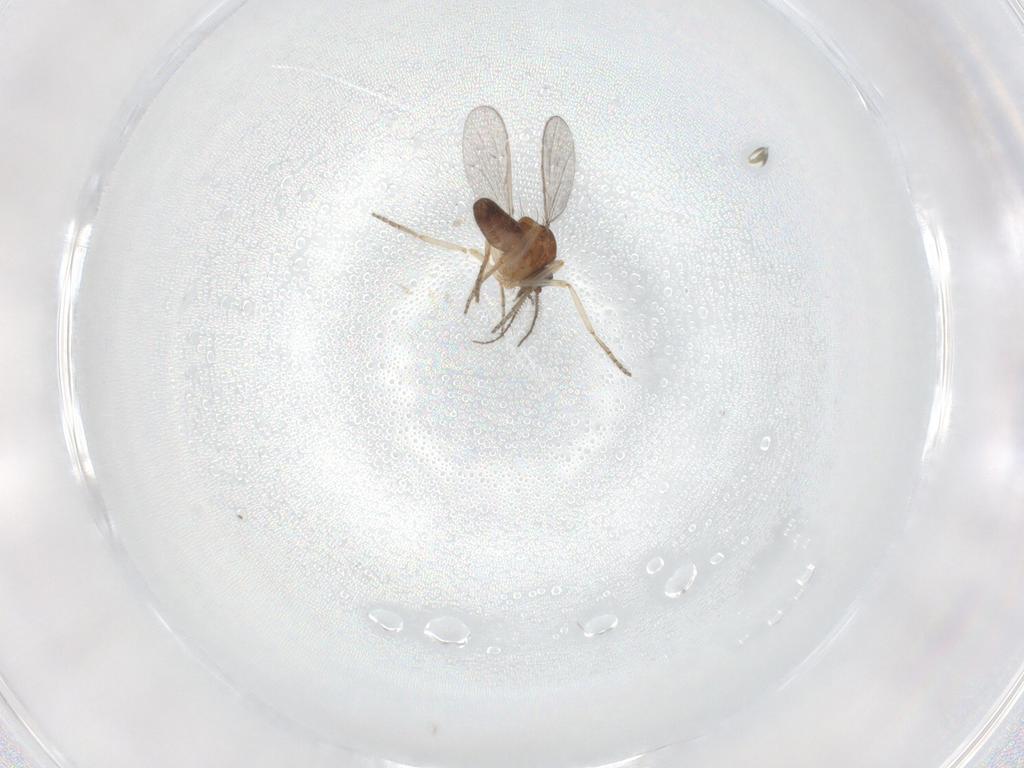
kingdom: Animalia
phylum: Arthropoda
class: Insecta
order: Diptera
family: Ceratopogonidae
